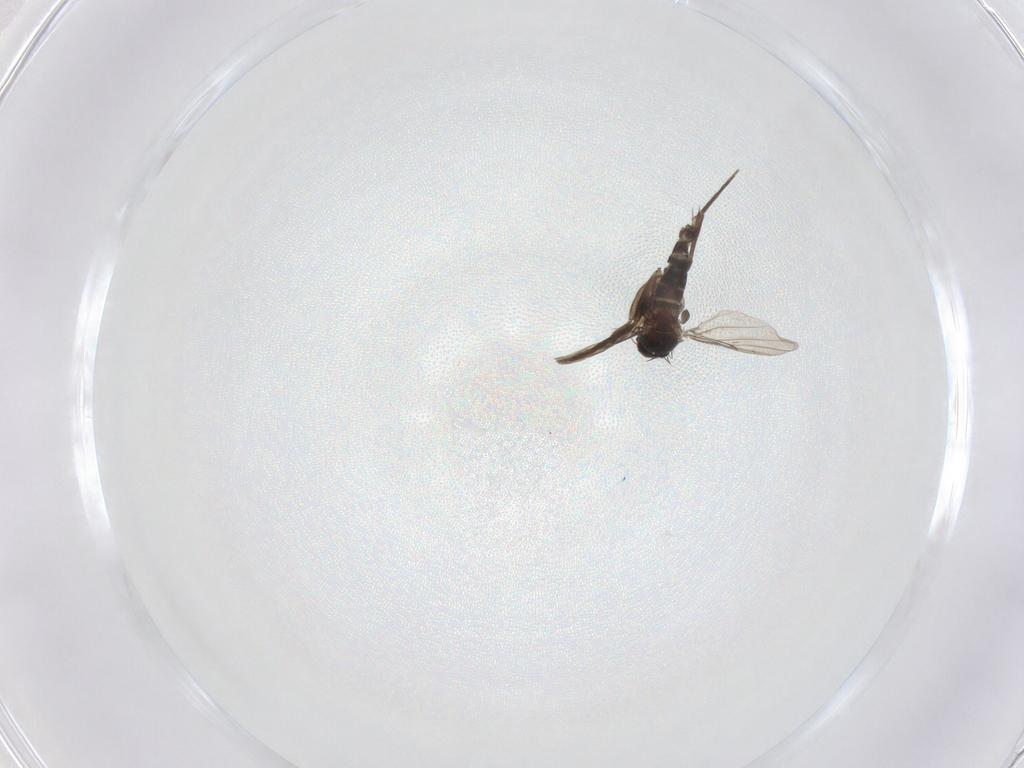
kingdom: Animalia
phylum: Arthropoda
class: Insecta
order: Diptera
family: Phoridae
